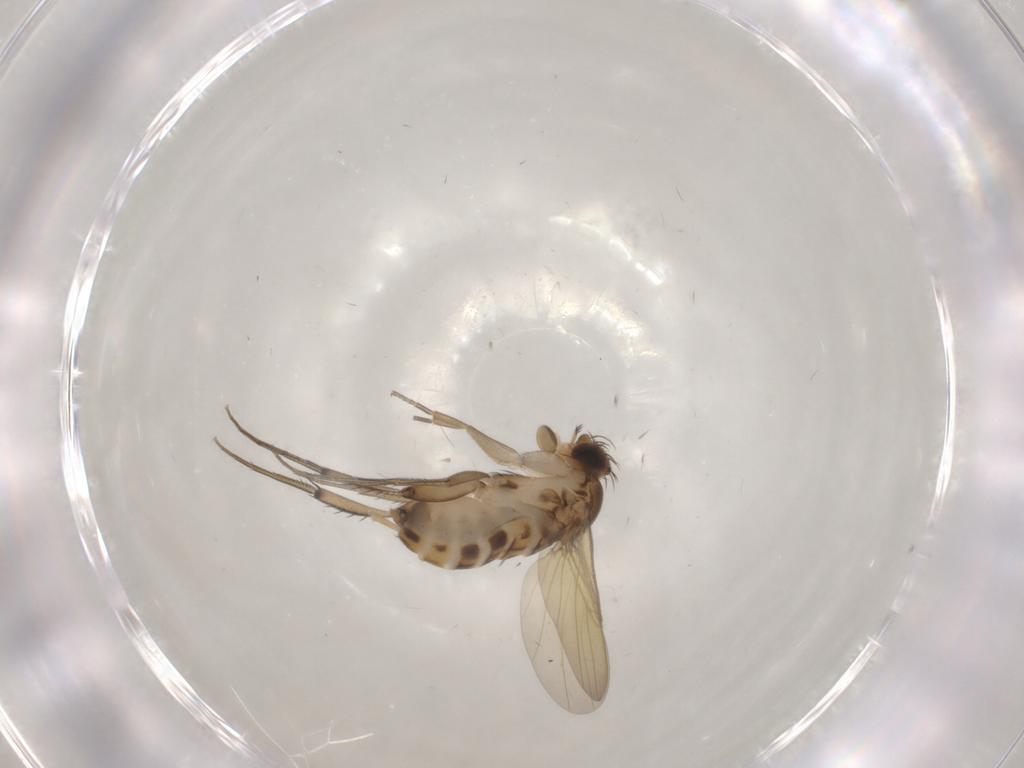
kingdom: Animalia
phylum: Arthropoda
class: Insecta
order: Diptera
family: Phoridae
